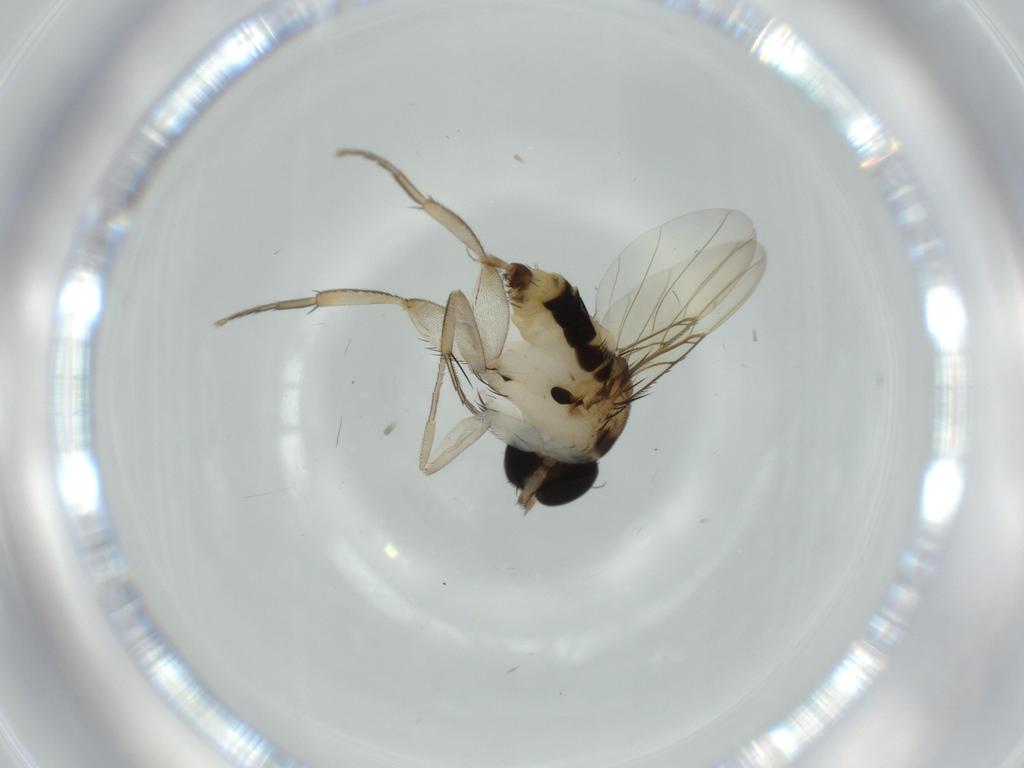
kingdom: Animalia
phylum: Arthropoda
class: Insecta
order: Diptera
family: Phoridae
